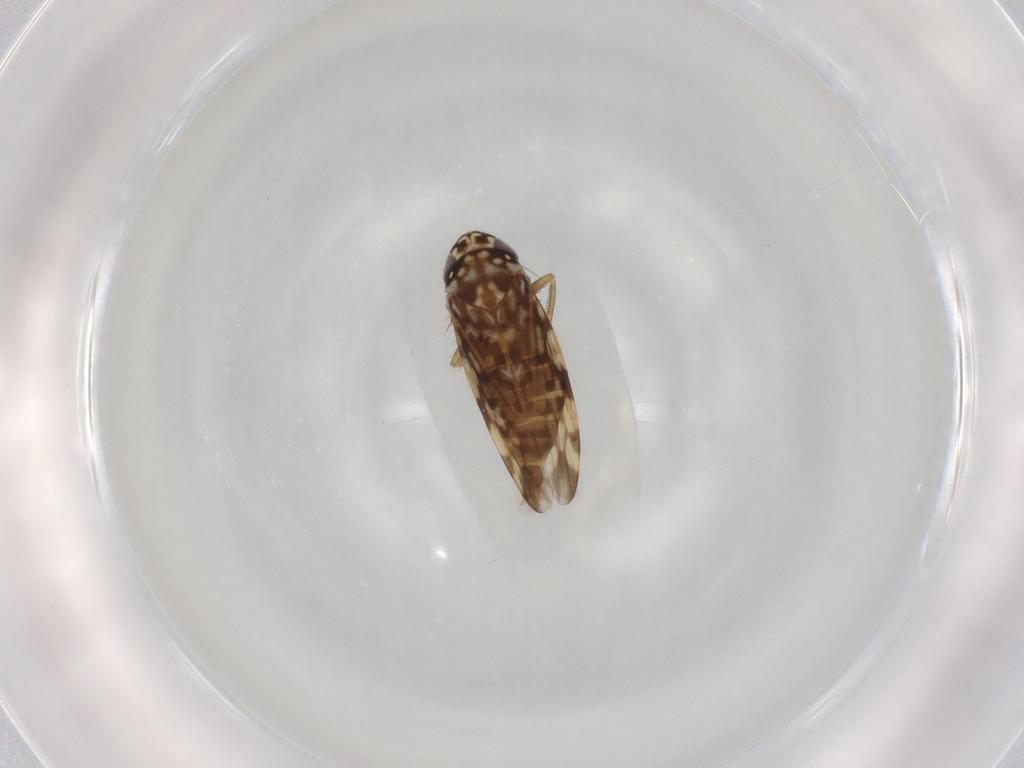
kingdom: Animalia
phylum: Arthropoda
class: Insecta
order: Hemiptera
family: Cicadellidae
